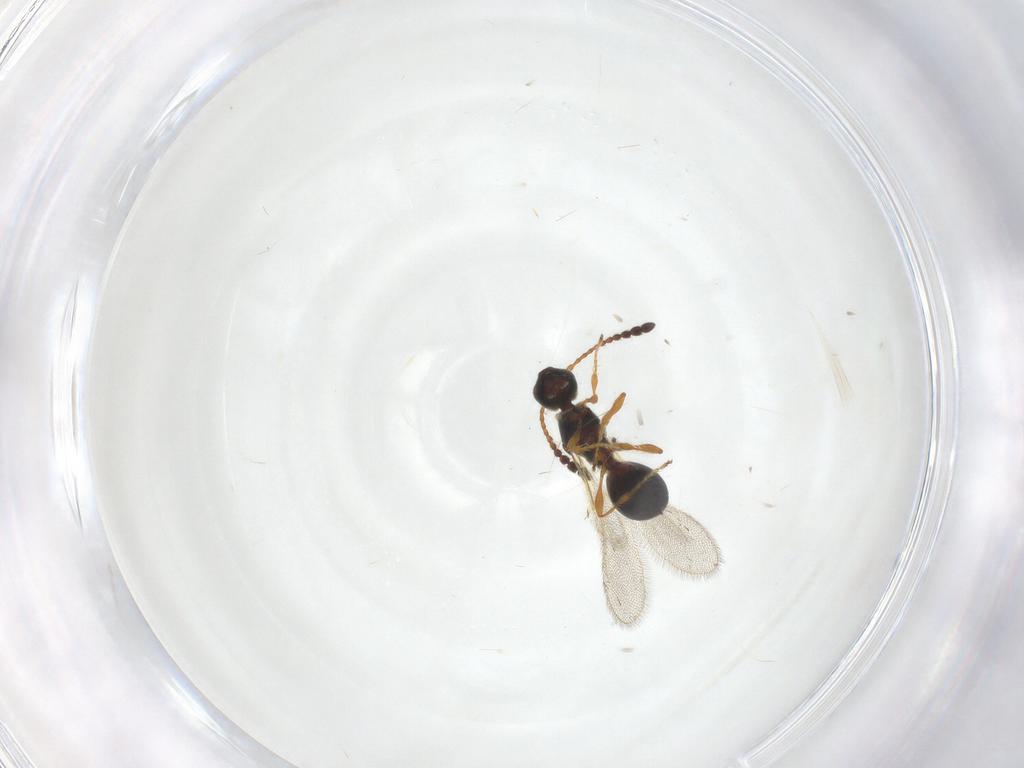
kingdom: Animalia
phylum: Arthropoda
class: Insecta
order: Hymenoptera
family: Diapriidae
